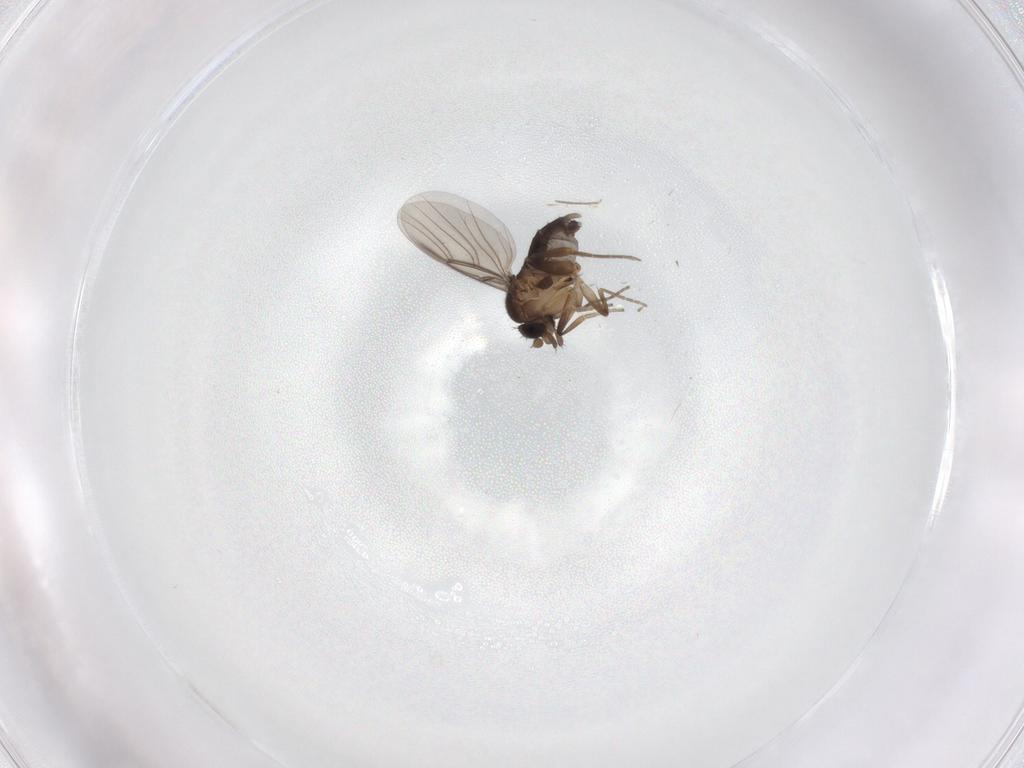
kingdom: Animalia
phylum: Arthropoda
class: Insecta
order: Diptera
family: Phoridae
